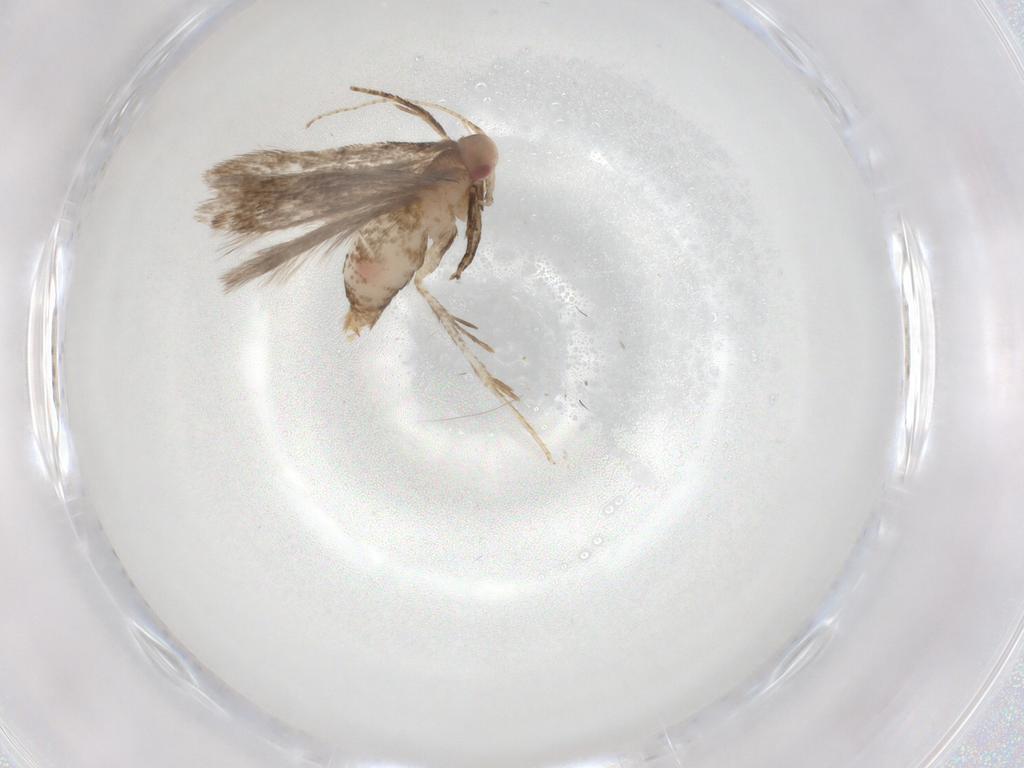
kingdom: Animalia
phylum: Arthropoda
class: Insecta
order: Lepidoptera
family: Gelechiidae
